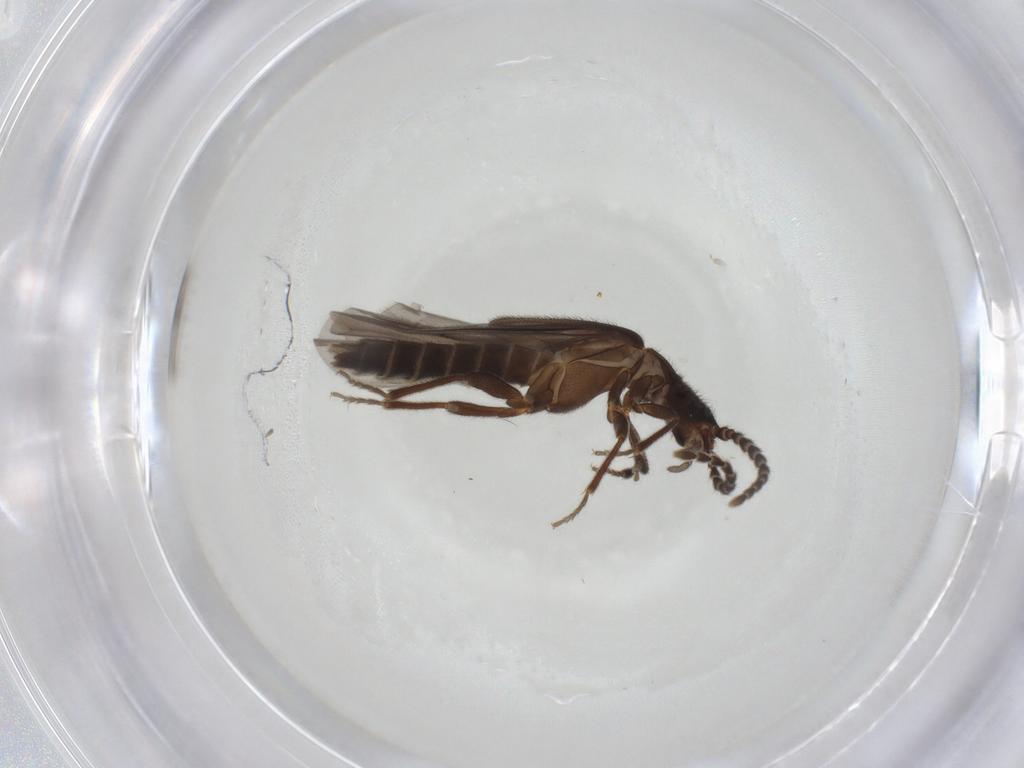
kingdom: Animalia
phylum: Arthropoda
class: Insecta
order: Coleoptera
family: Omethidae
